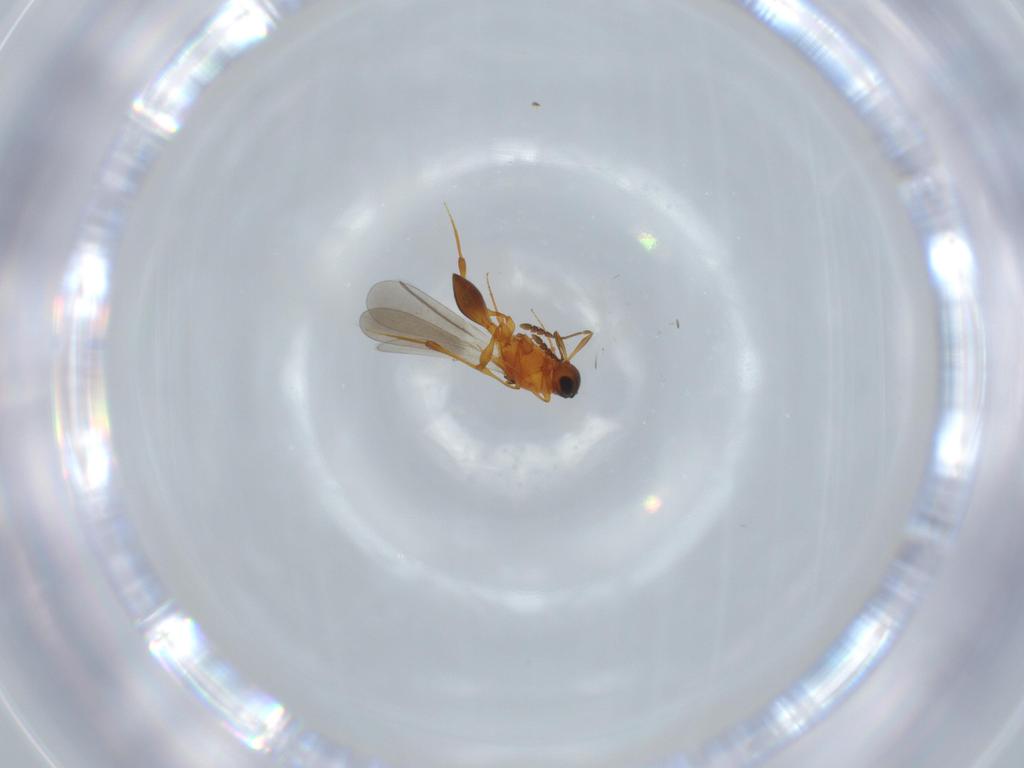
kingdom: Animalia
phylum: Arthropoda
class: Insecta
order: Hymenoptera
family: Platygastridae
